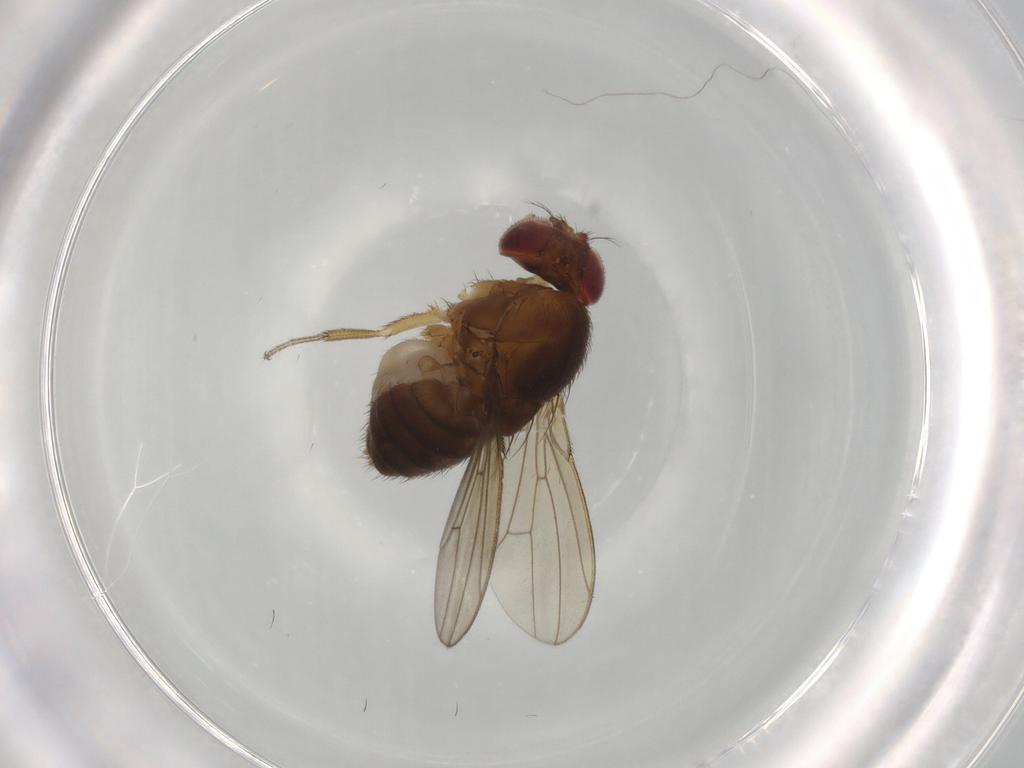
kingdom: Animalia
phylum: Arthropoda
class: Insecta
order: Diptera
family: Drosophilidae
